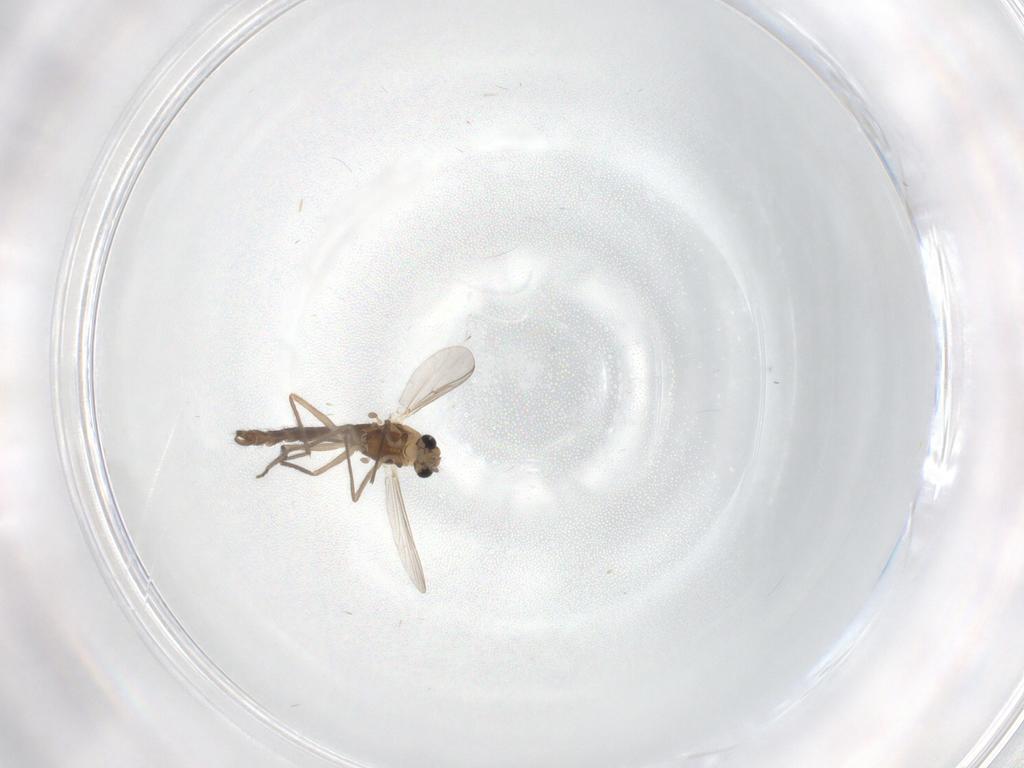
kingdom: Animalia
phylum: Arthropoda
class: Insecta
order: Diptera
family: Chironomidae
